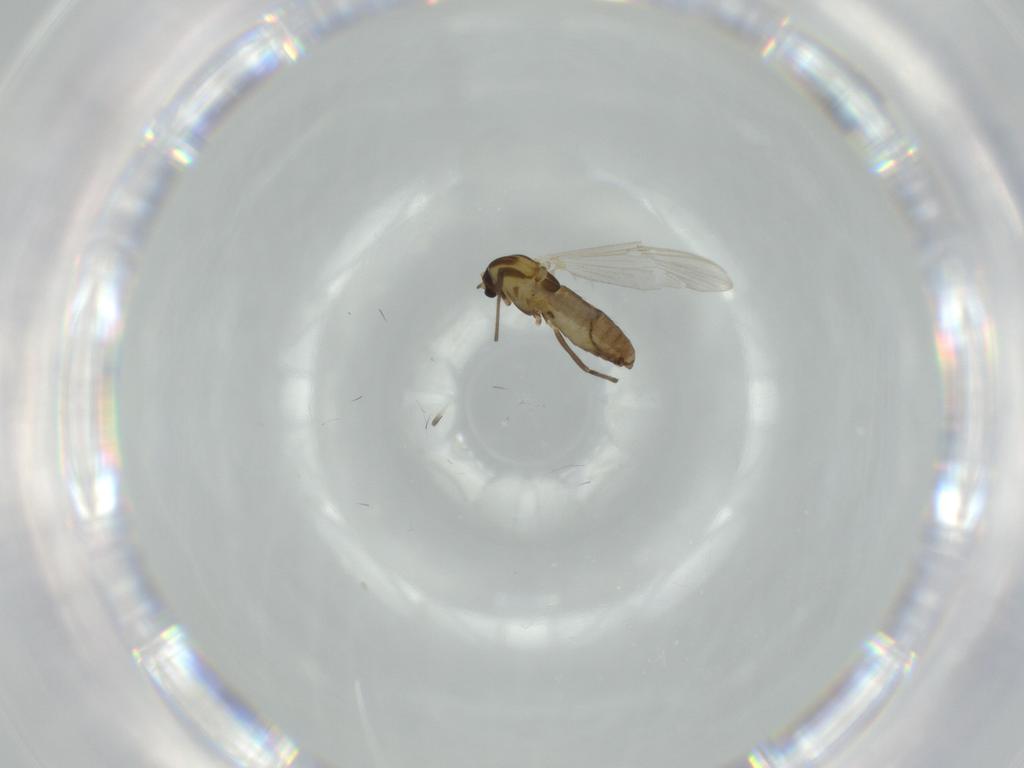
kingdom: Animalia
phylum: Arthropoda
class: Insecta
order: Diptera
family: Chironomidae
